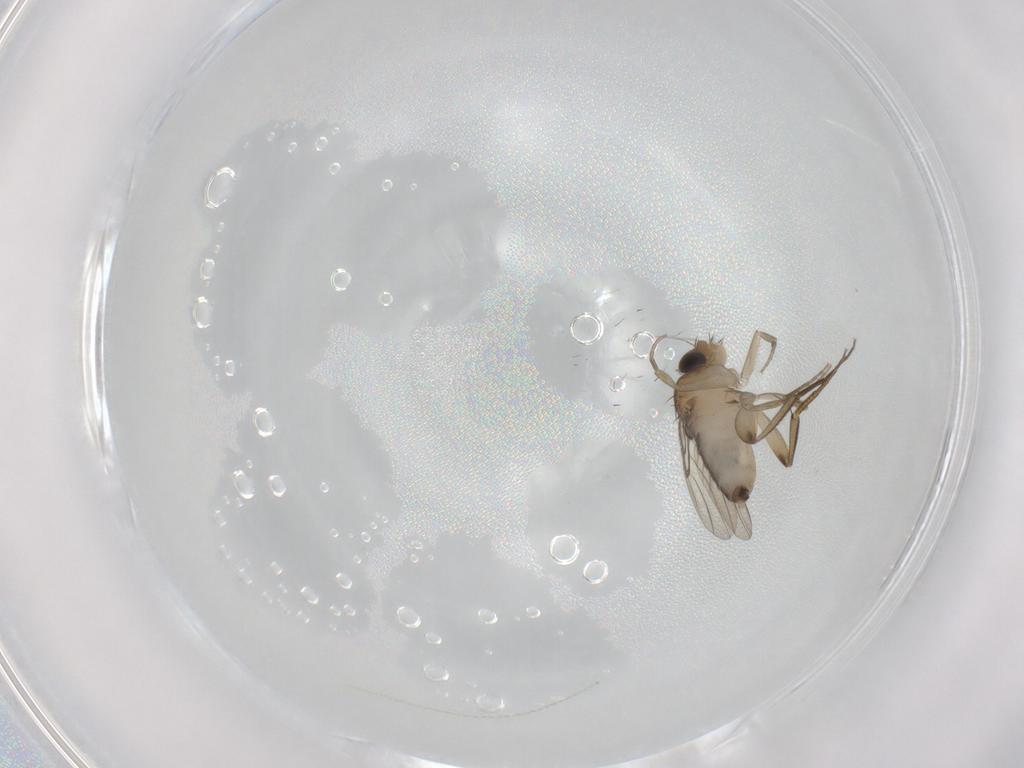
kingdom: Animalia
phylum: Arthropoda
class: Insecta
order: Diptera
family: Phoridae
